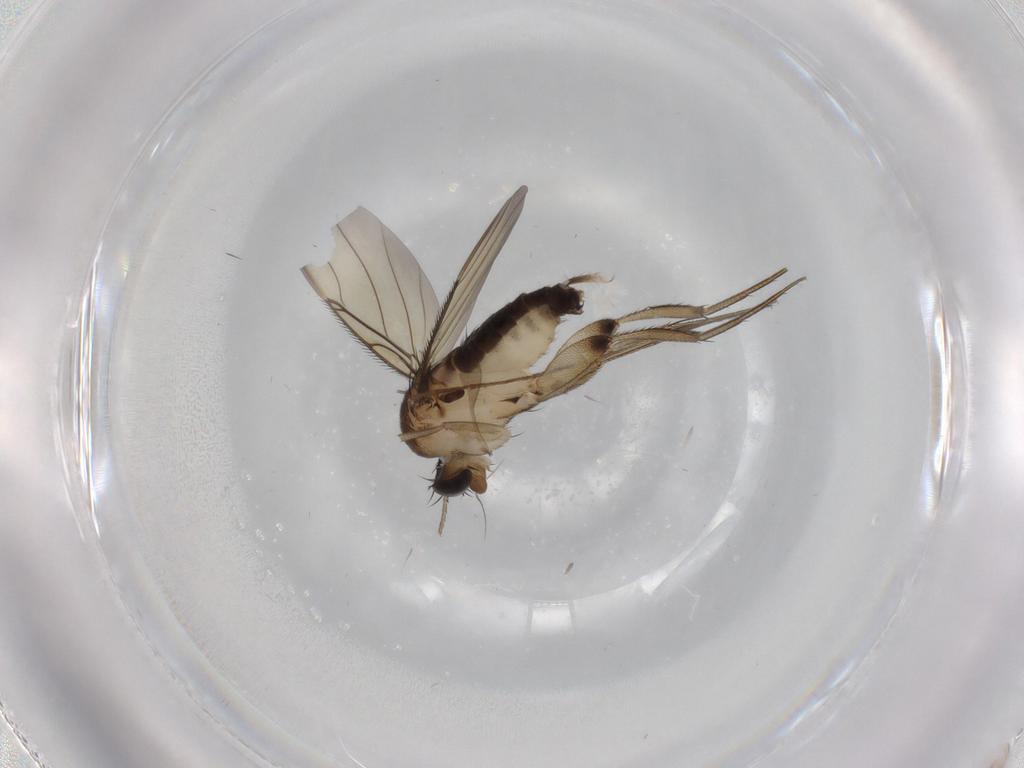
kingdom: Animalia
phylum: Arthropoda
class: Insecta
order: Diptera
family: Phoridae
